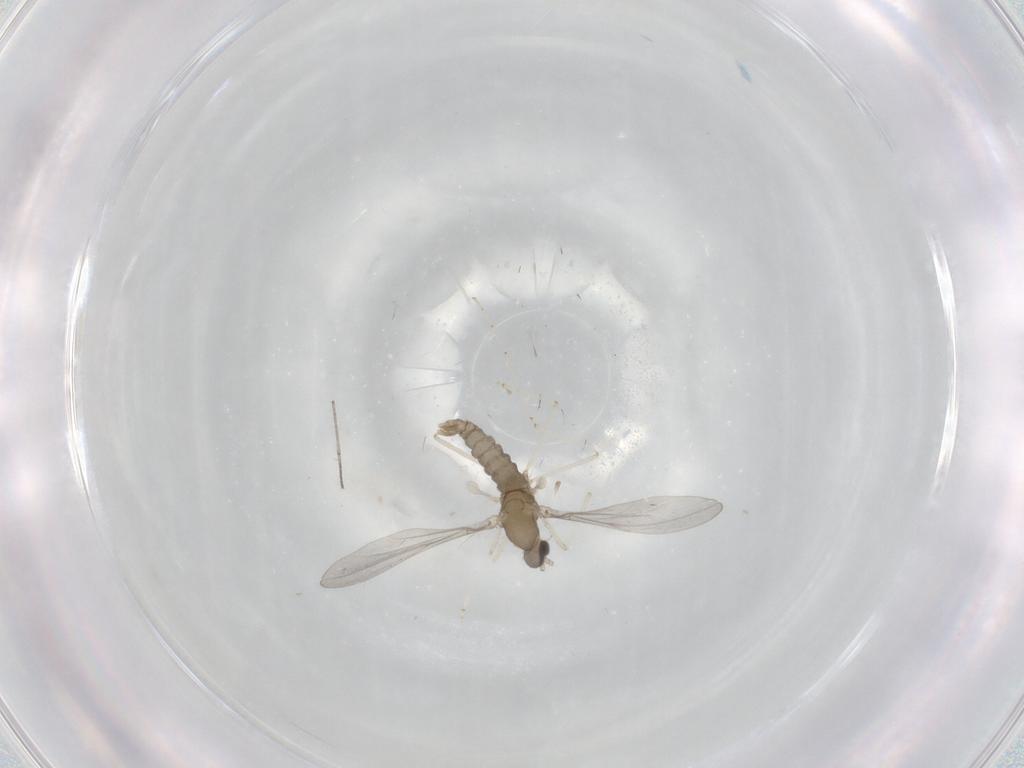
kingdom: Animalia
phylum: Arthropoda
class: Insecta
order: Diptera
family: Cecidomyiidae
